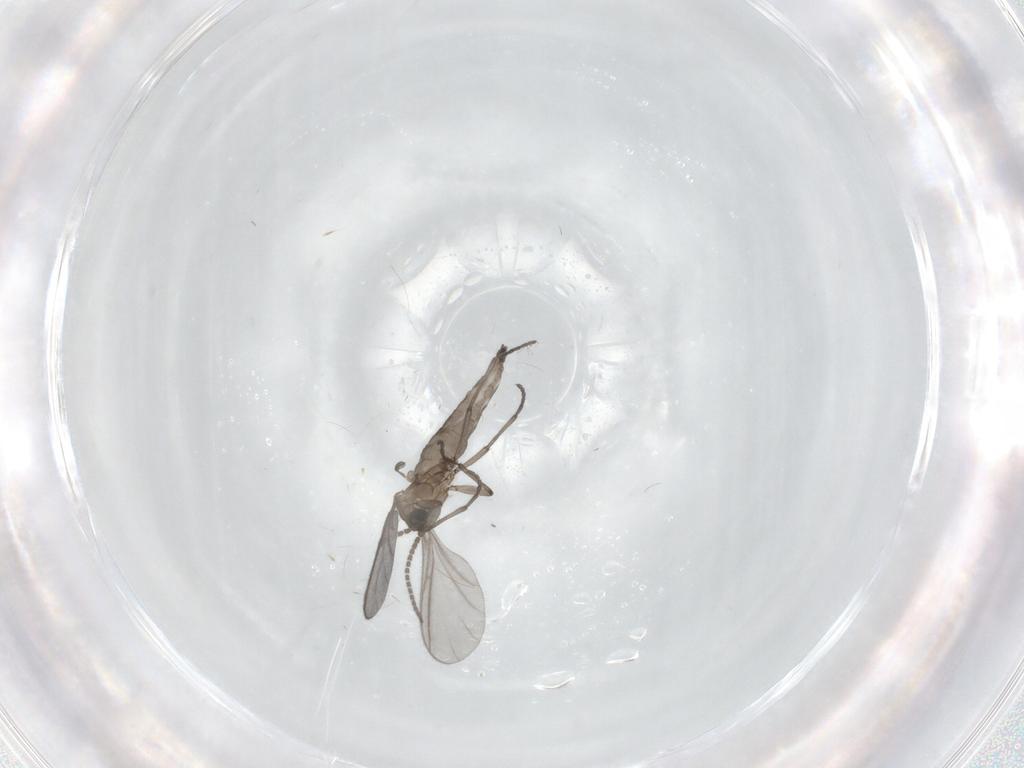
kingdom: Animalia
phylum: Arthropoda
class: Insecta
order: Diptera
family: Sciaridae
